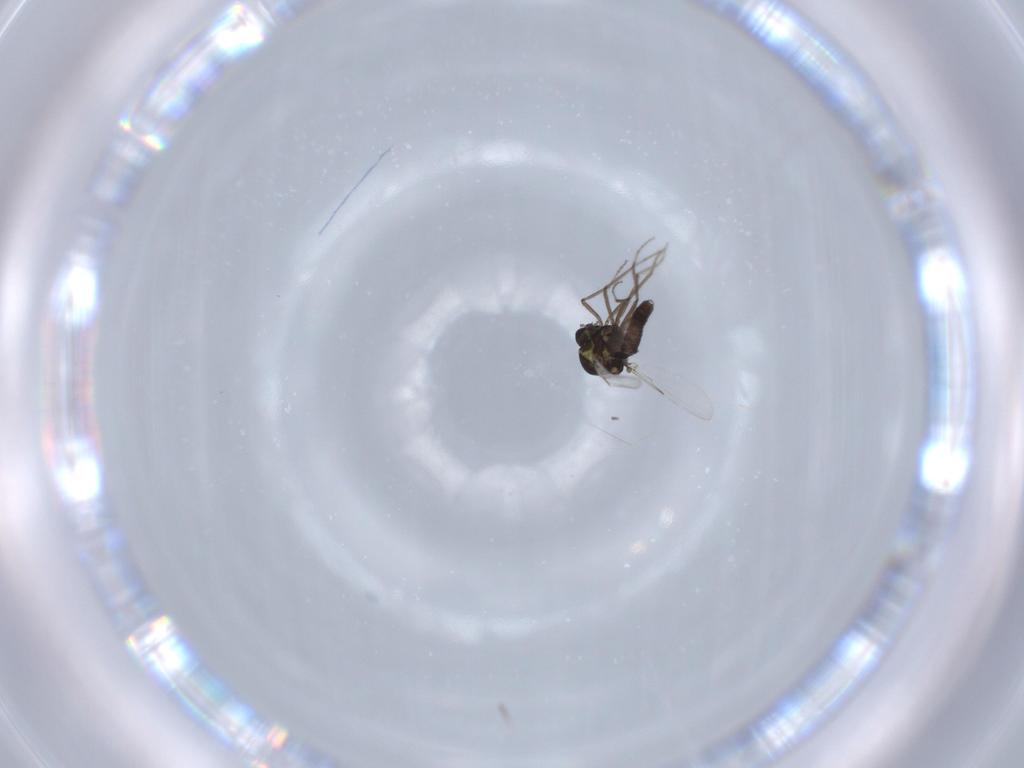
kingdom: Animalia
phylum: Arthropoda
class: Insecta
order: Diptera
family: Ceratopogonidae
